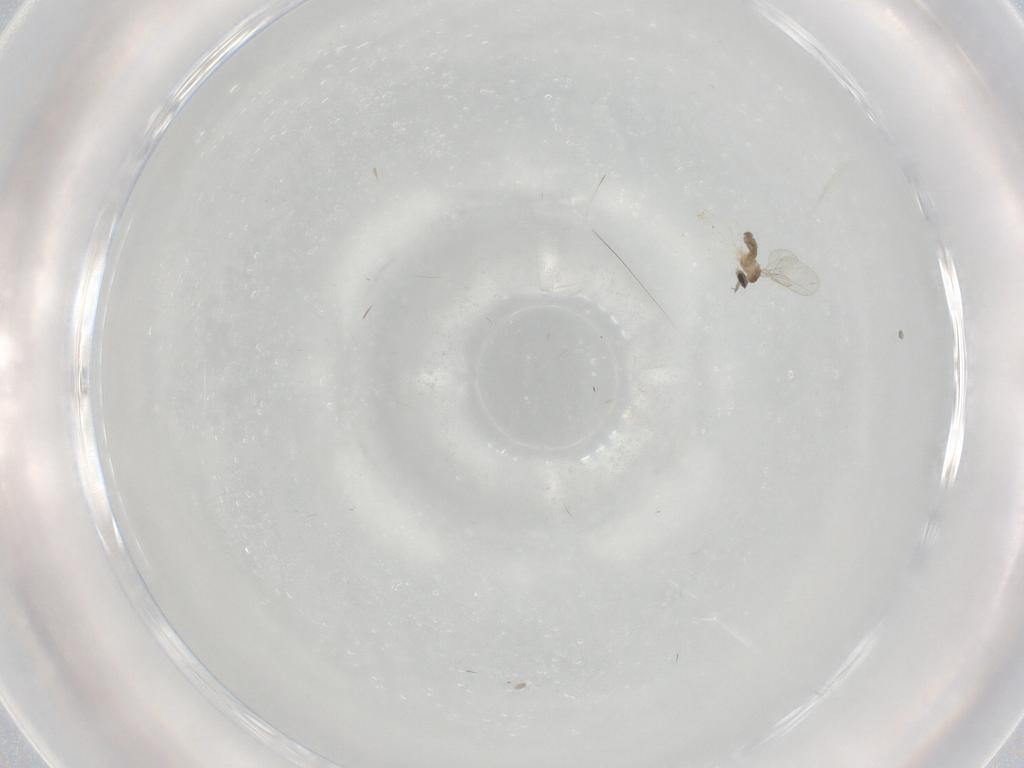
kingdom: Animalia
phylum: Arthropoda
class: Insecta
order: Diptera
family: Cecidomyiidae
